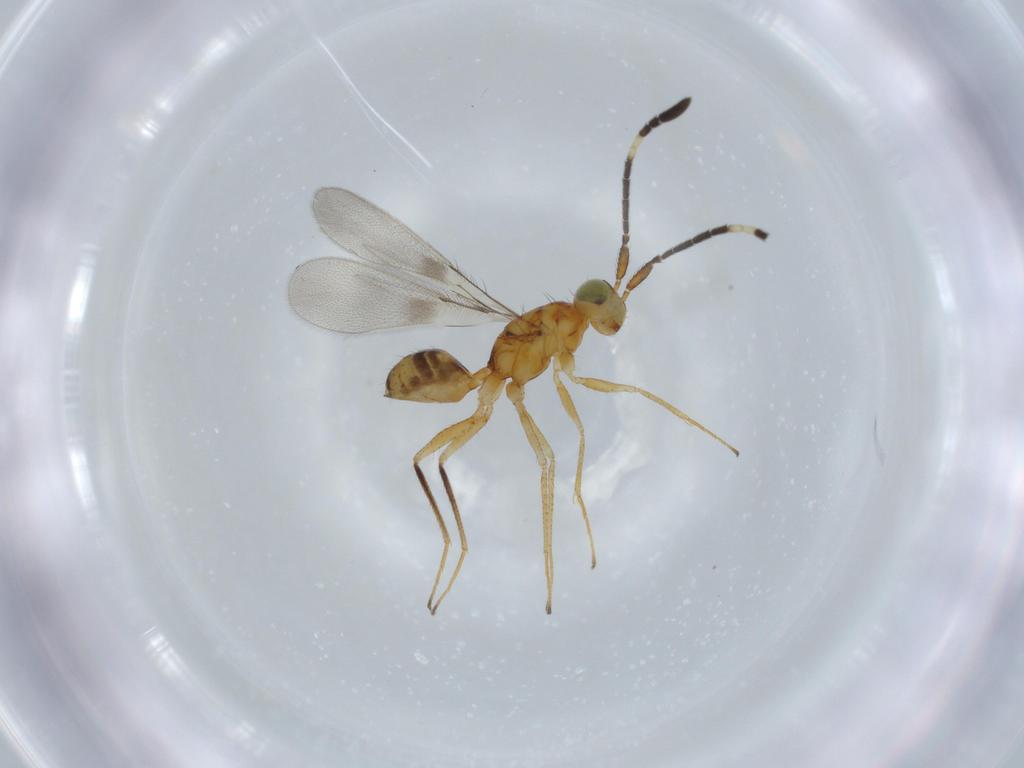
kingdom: Animalia
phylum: Arthropoda
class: Insecta
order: Hymenoptera
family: Mymaridae
